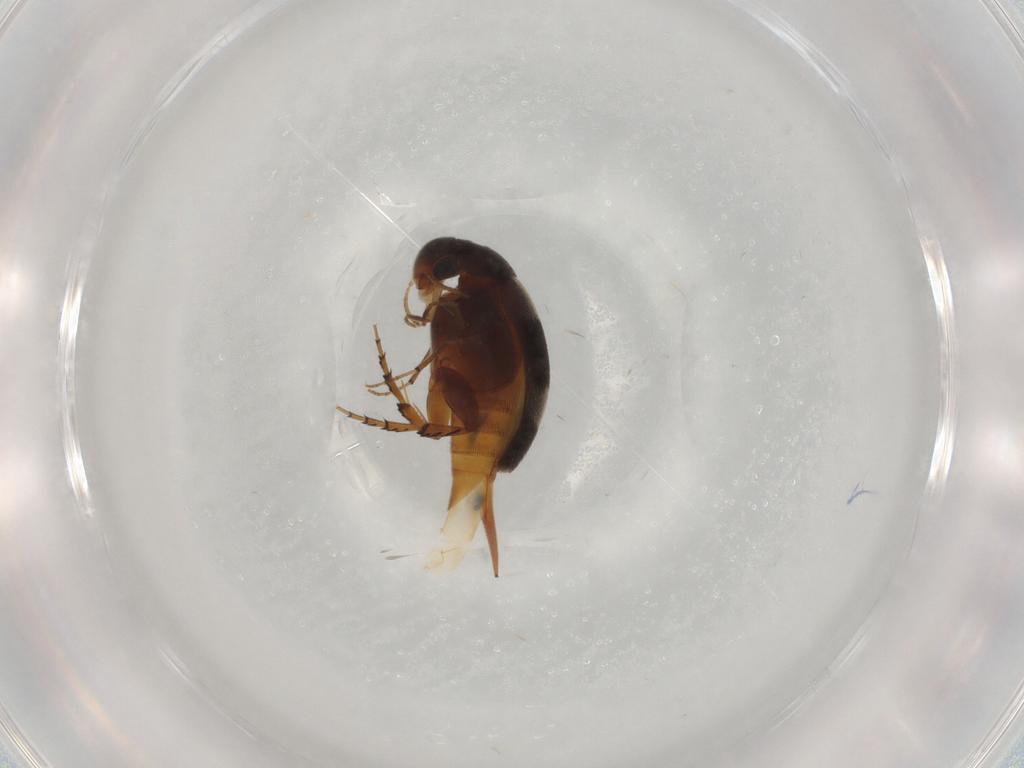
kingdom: Animalia
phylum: Arthropoda
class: Insecta
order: Coleoptera
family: Mordellidae
